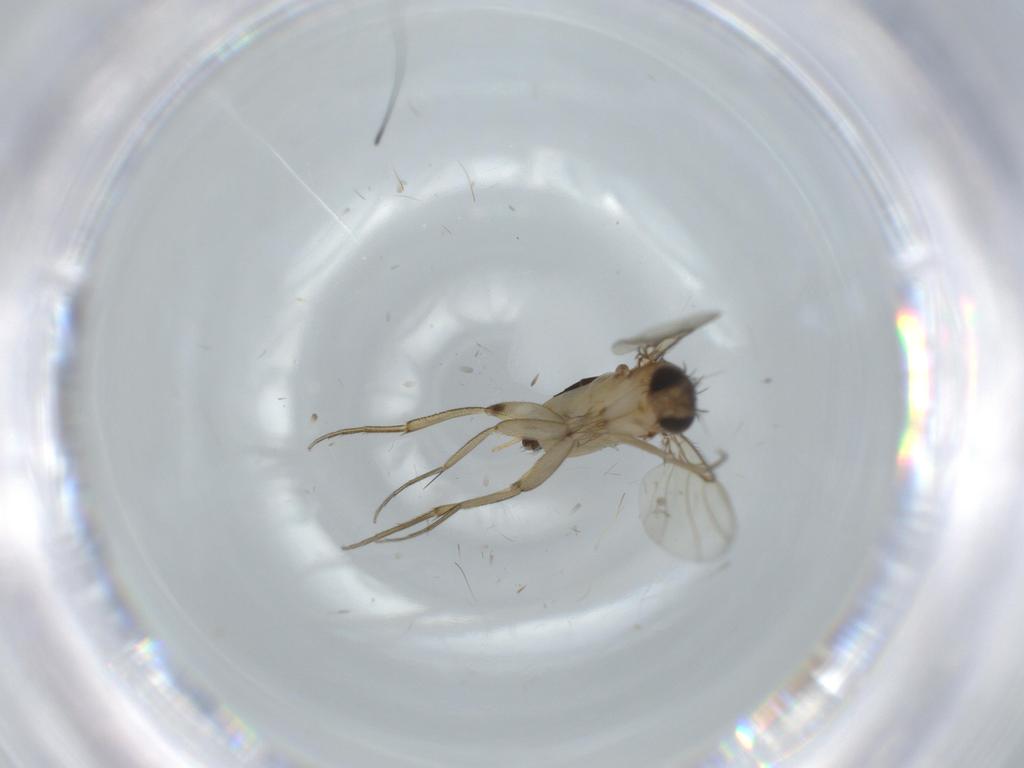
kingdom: Animalia
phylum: Arthropoda
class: Insecta
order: Diptera
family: Phoridae
